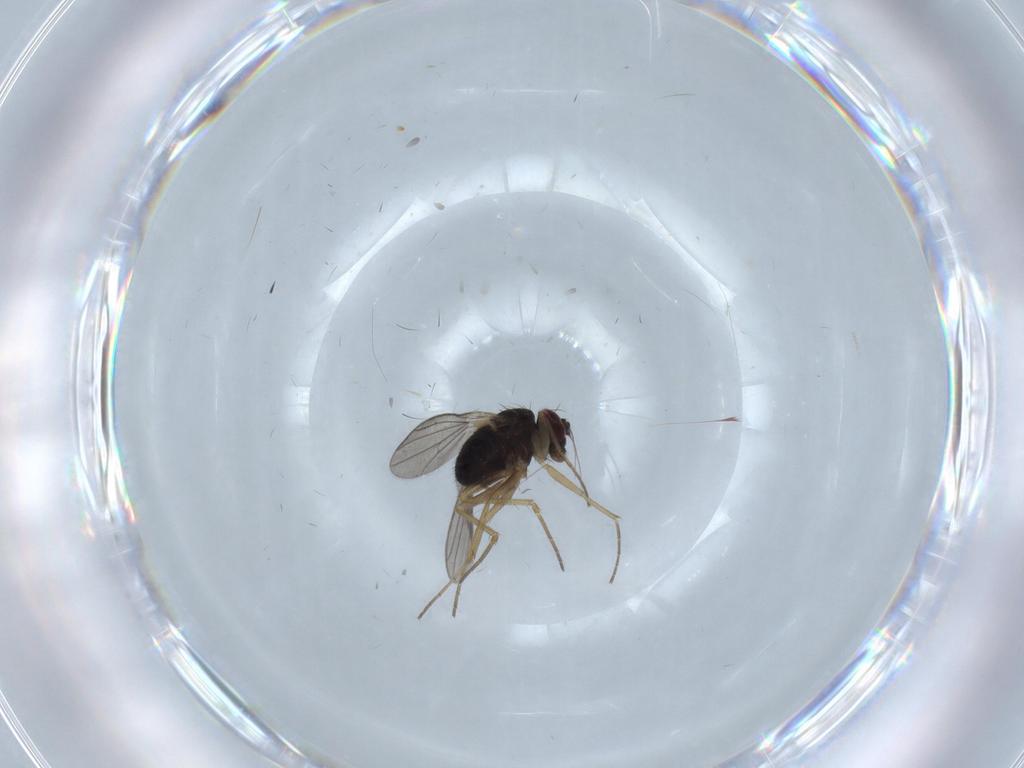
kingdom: Animalia
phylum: Arthropoda
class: Insecta
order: Diptera
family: Dolichopodidae
